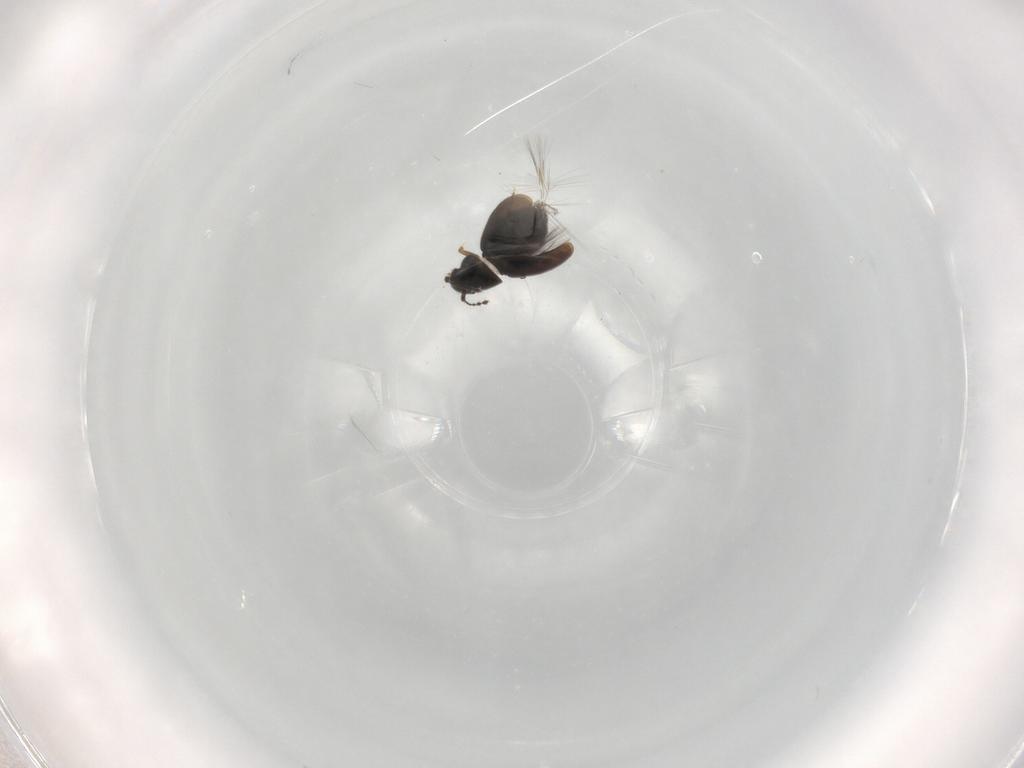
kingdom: Animalia
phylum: Arthropoda
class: Insecta
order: Coleoptera
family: Ptiliidae
